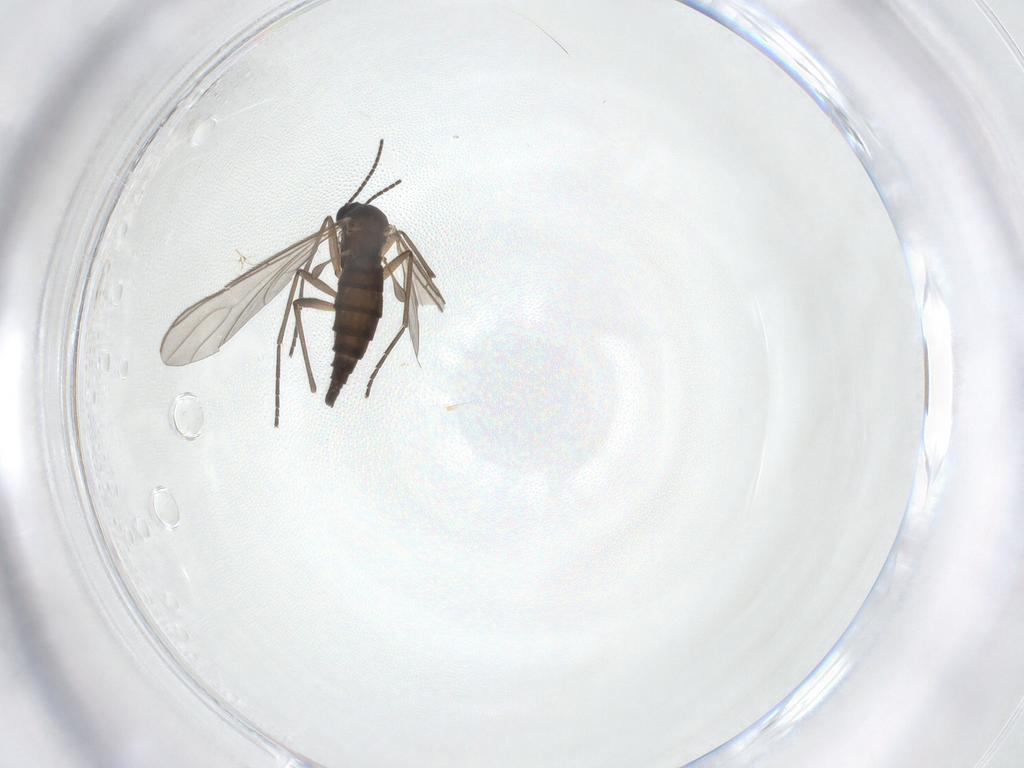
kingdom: Animalia
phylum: Arthropoda
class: Insecta
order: Diptera
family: Sciaridae
